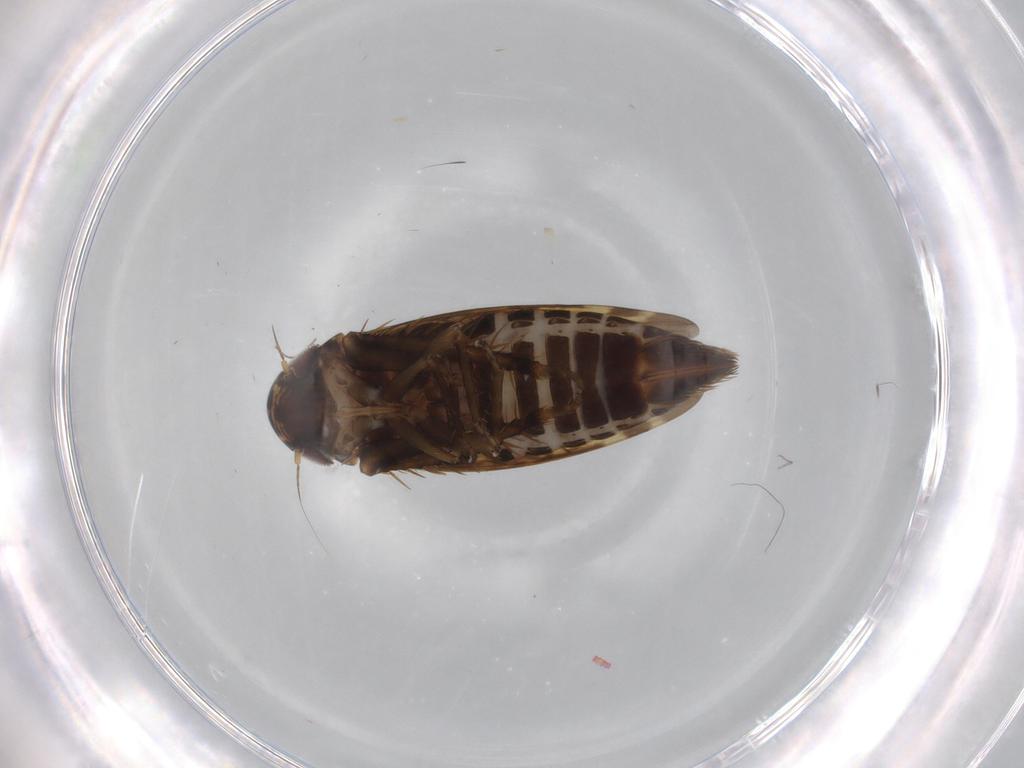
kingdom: Animalia
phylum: Arthropoda
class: Insecta
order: Hemiptera
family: Cicadellidae
